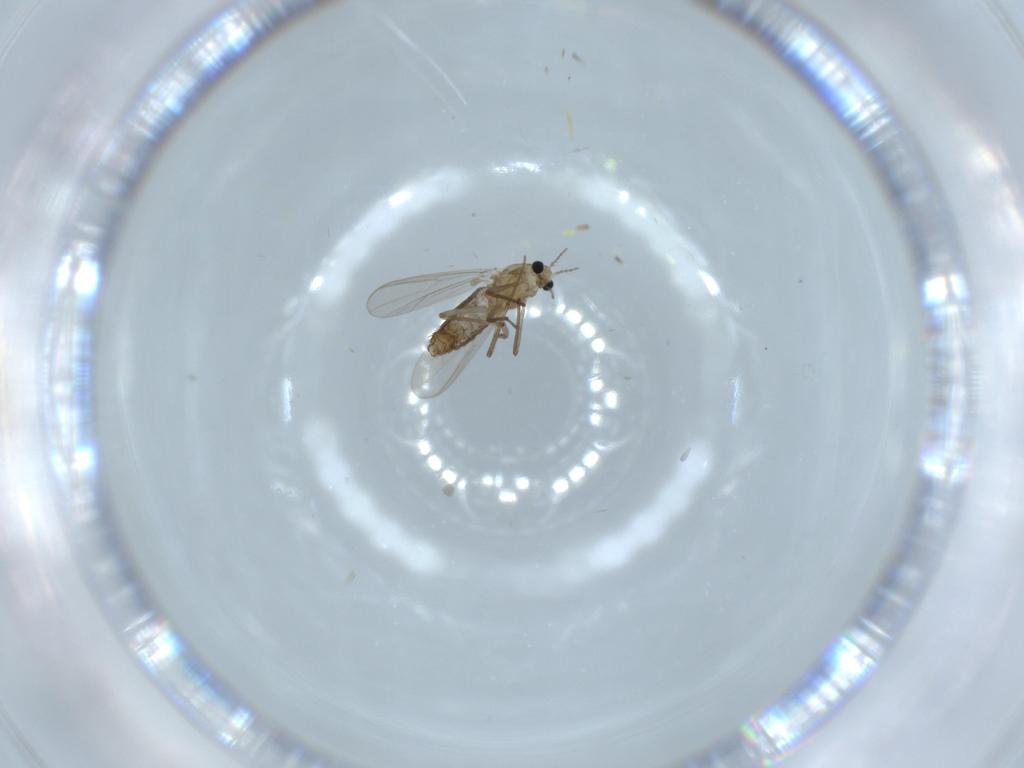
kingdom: Animalia
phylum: Arthropoda
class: Insecta
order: Diptera
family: Chironomidae
